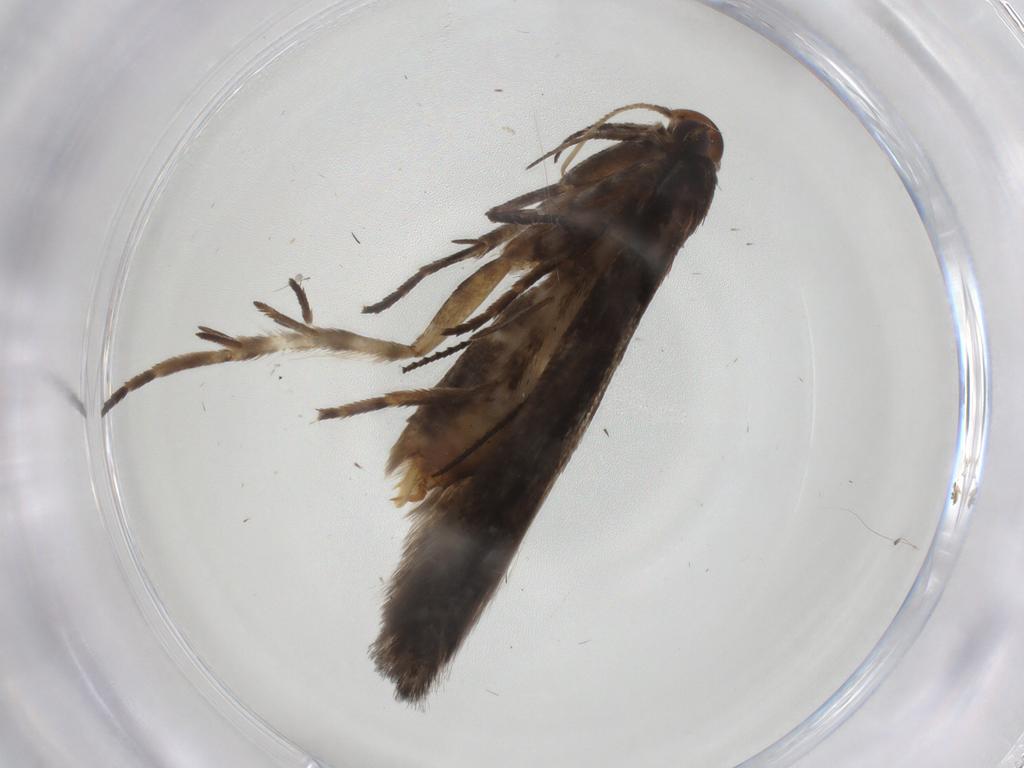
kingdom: Animalia
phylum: Arthropoda
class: Insecta
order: Lepidoptera
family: Gelechiidae
